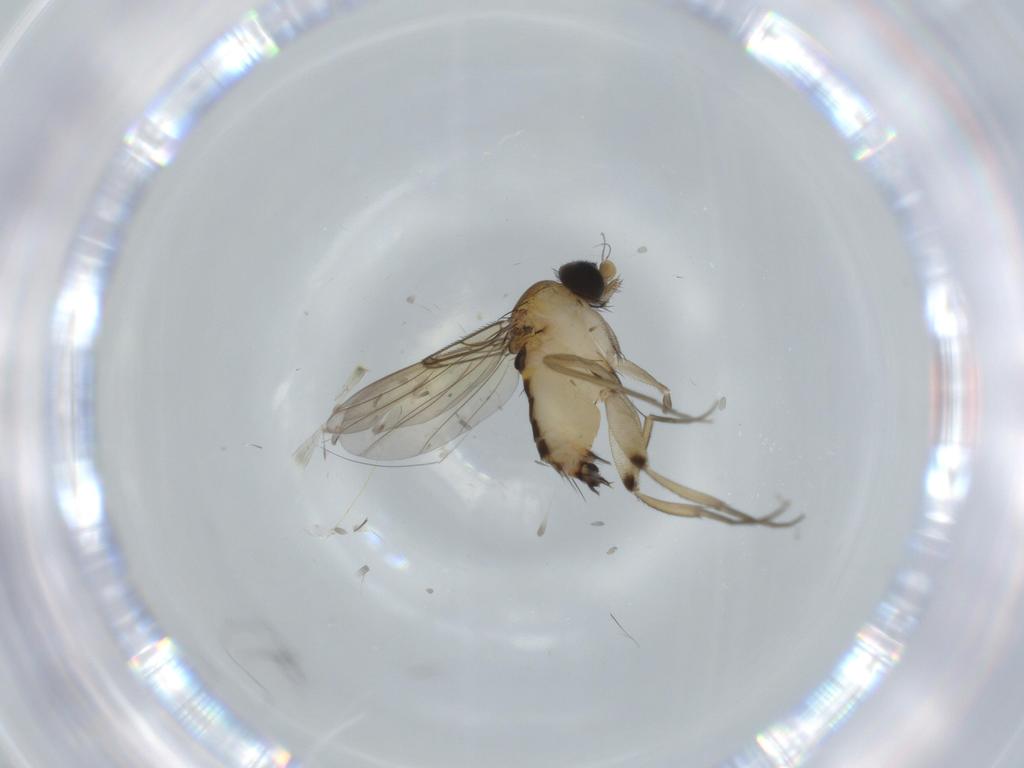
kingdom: Animalia
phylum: Arthropoda
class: Insecta
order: Diptera
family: Phoridae
